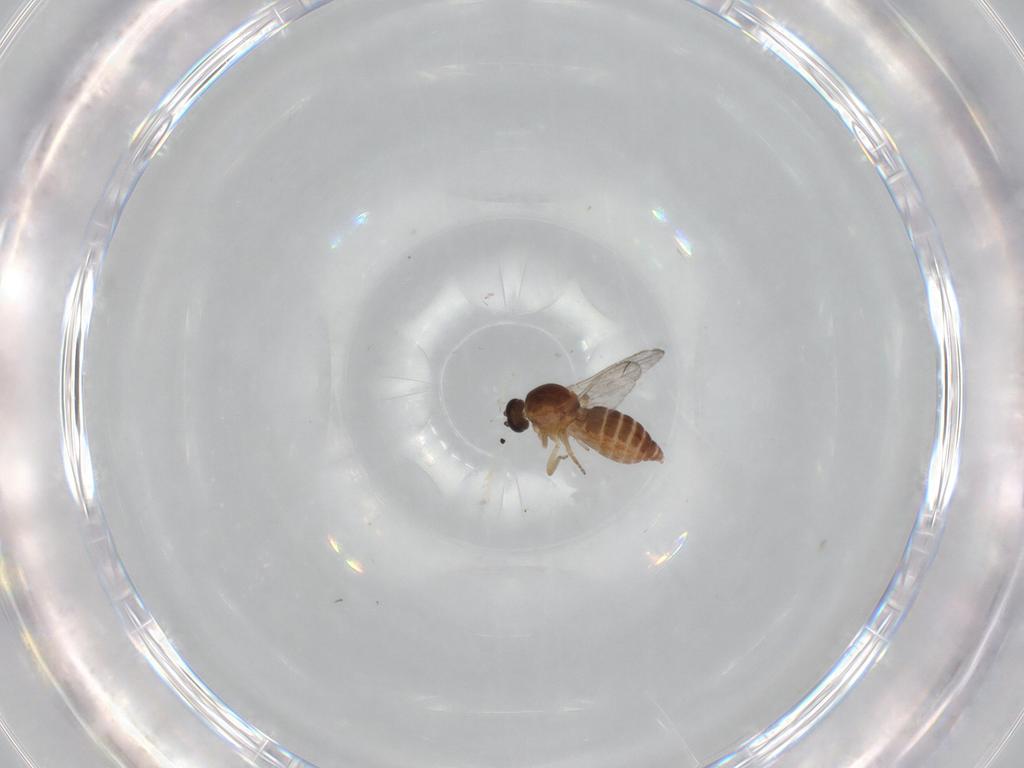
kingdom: Animalia
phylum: Arthropoda
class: Insecta
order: Diptera
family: Ceratopogonidae
